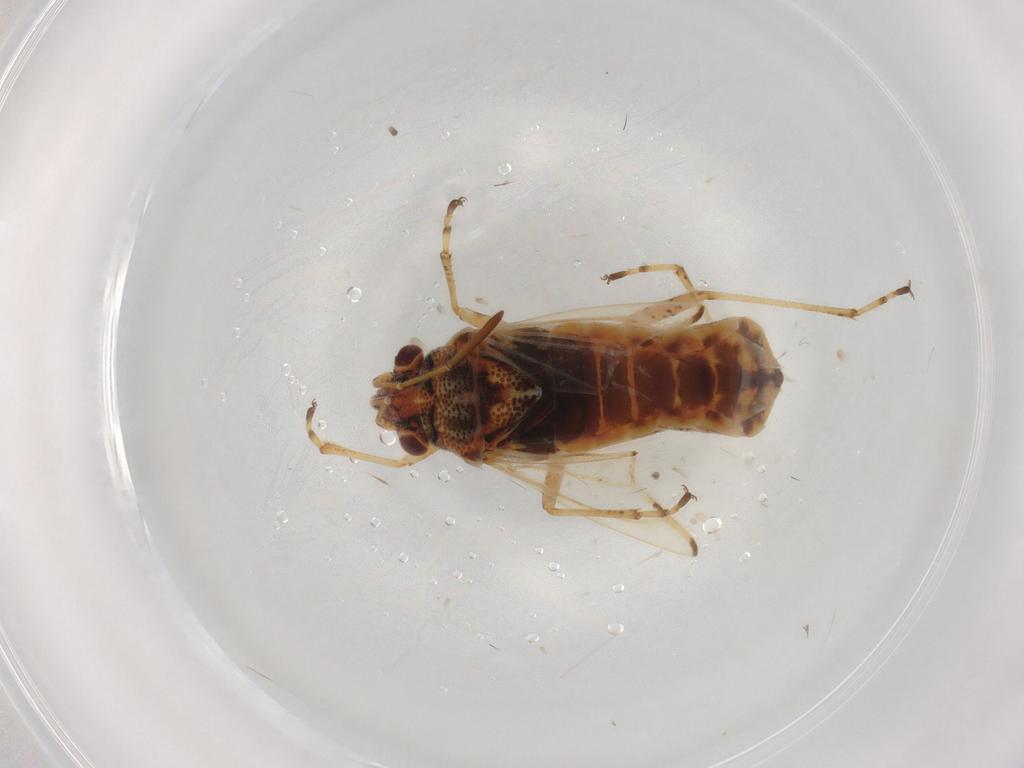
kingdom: Animalia
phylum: Arthropoda
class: Insecta
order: Hemiptera
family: Lygaeidae
